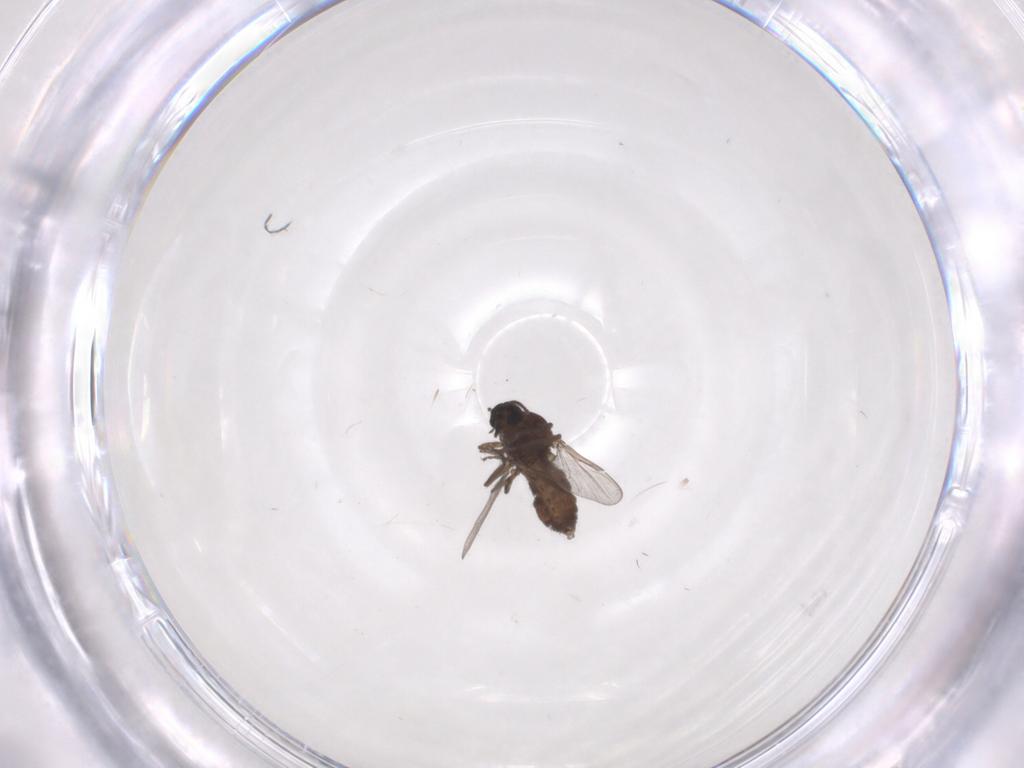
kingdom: Animalia
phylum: Arthropoda
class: Insecta
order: Diptera
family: Ceratopogonidae
